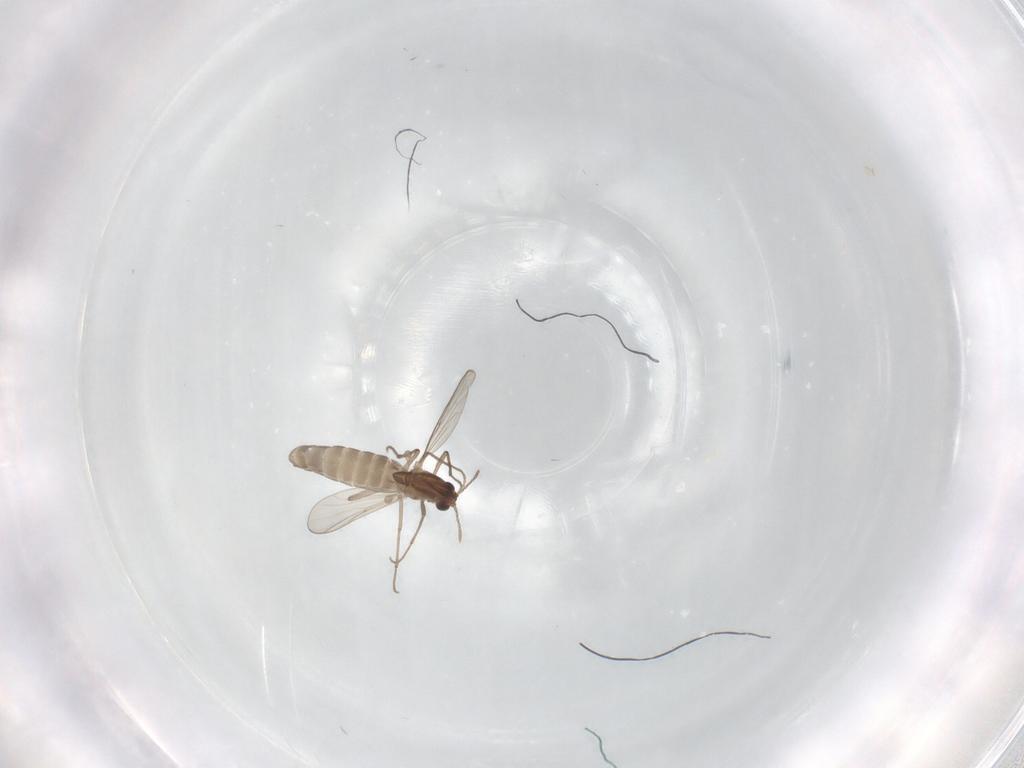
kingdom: Animalia
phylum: Arthropoda
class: Insecta
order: Diptera
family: Chironomidae
